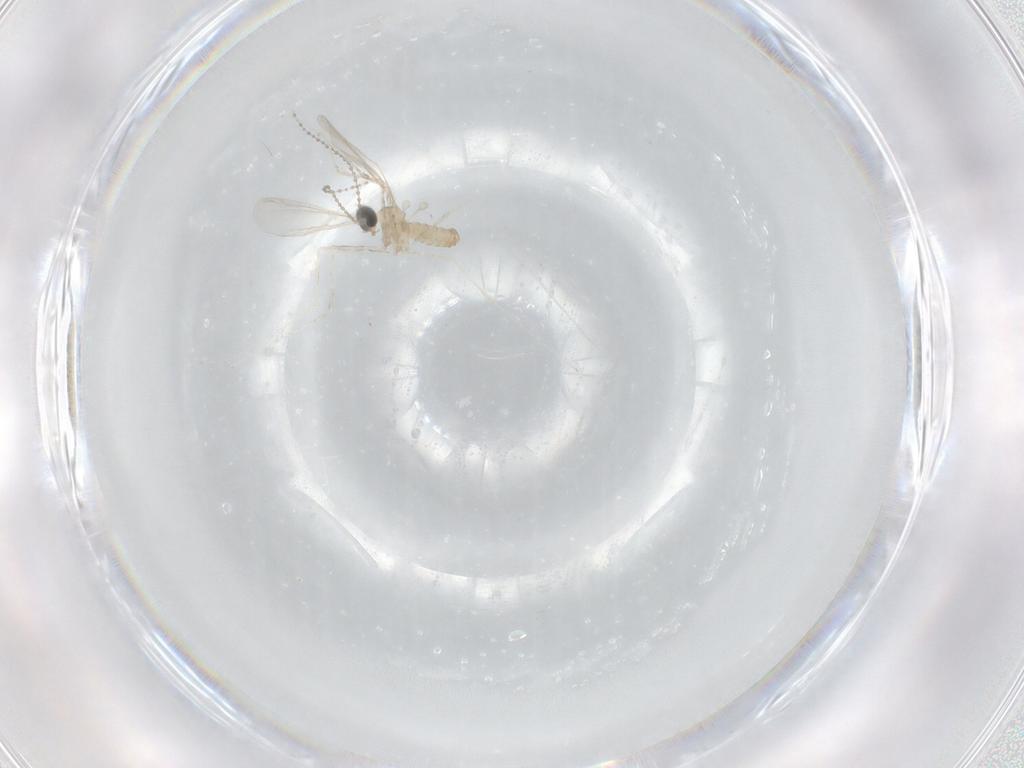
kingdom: Animalia
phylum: Arthropoda
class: Insecta
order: Diptera
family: Cecidomyiidae
